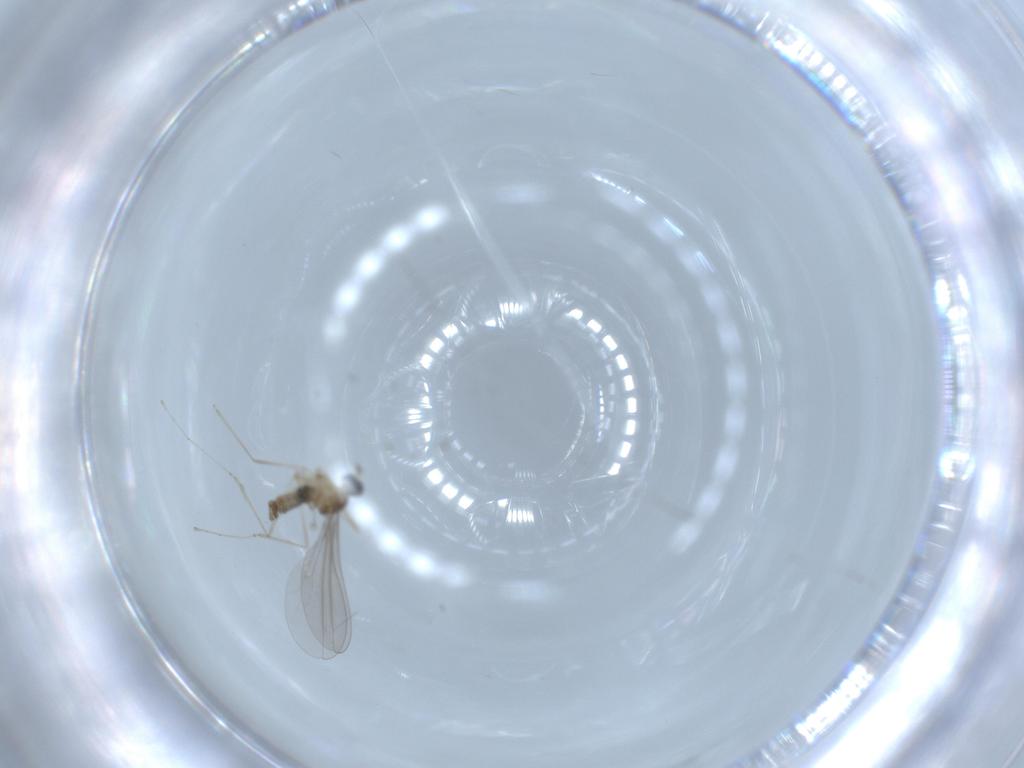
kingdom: Animalia
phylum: Arthropoda
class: Insecta
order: Diptera
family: Cecidomyiidae
